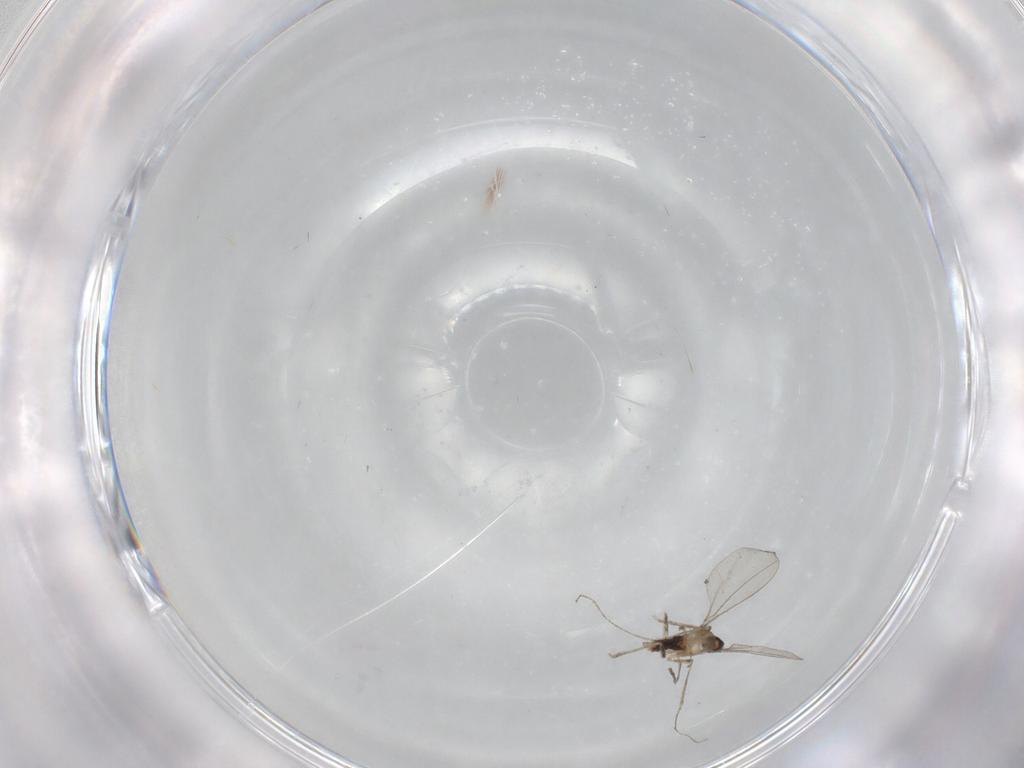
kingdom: Animalia
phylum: Arthropoda
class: Insecta
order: Diptera
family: Cecidomyiidae
